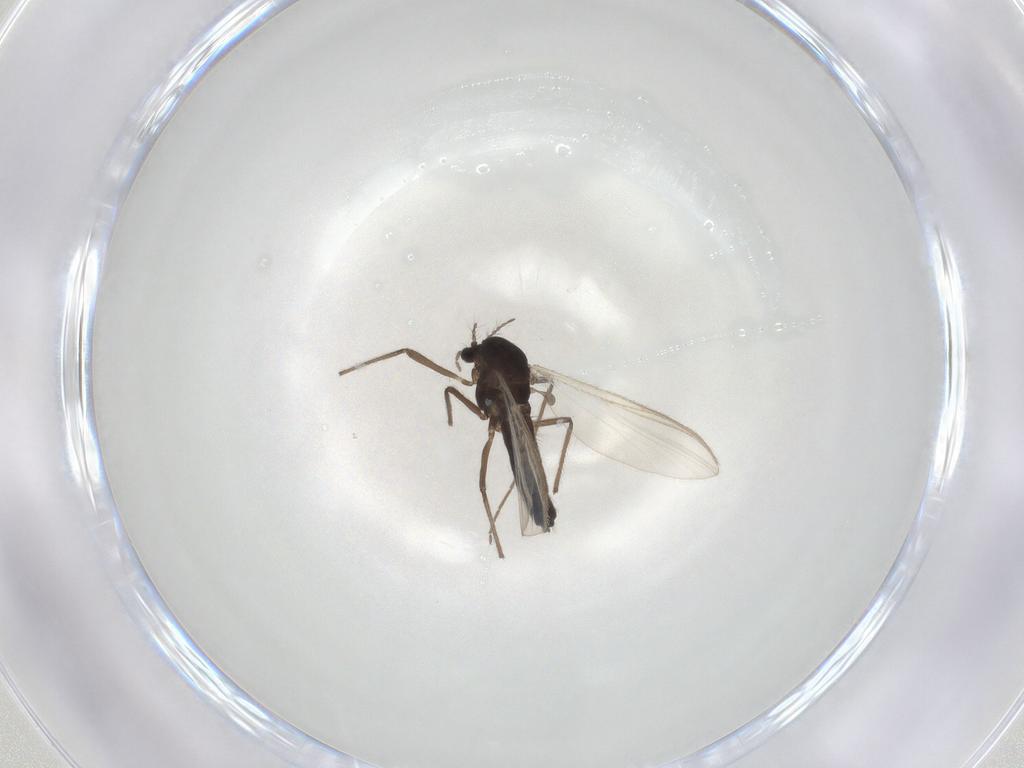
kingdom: Animalia
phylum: Arthropoda
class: Insecta
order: Diptera
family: Chironomidae
